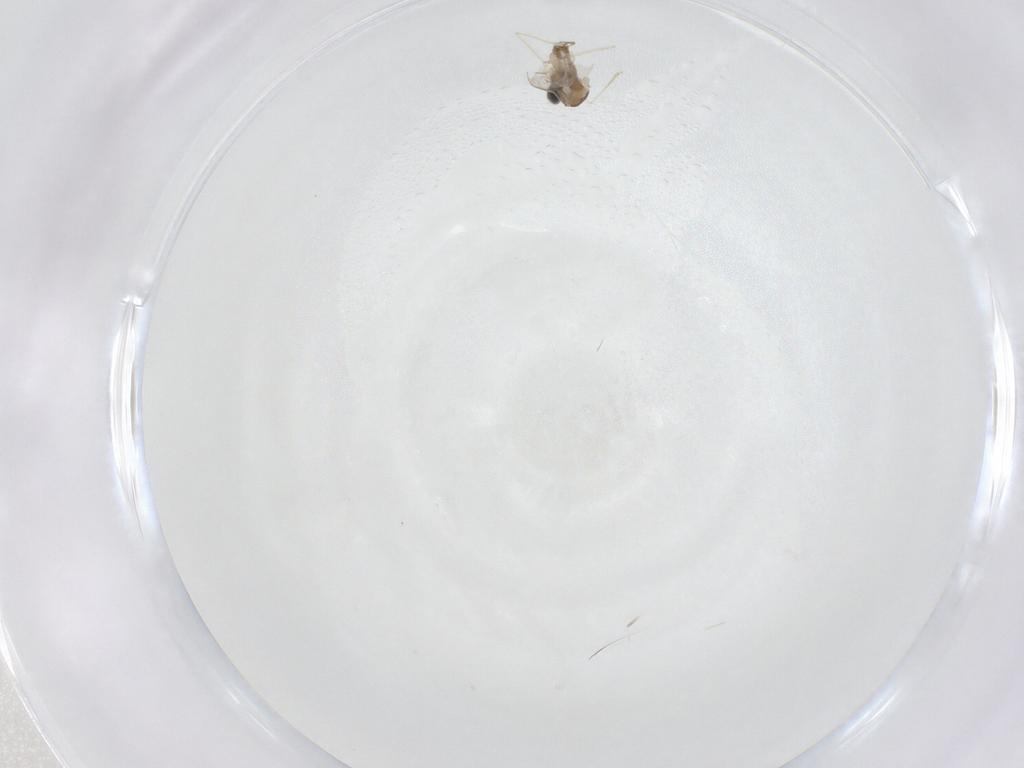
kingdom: Animalia
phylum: Arthropoda
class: Insecta
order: Diptera
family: Cecidomyiidae
